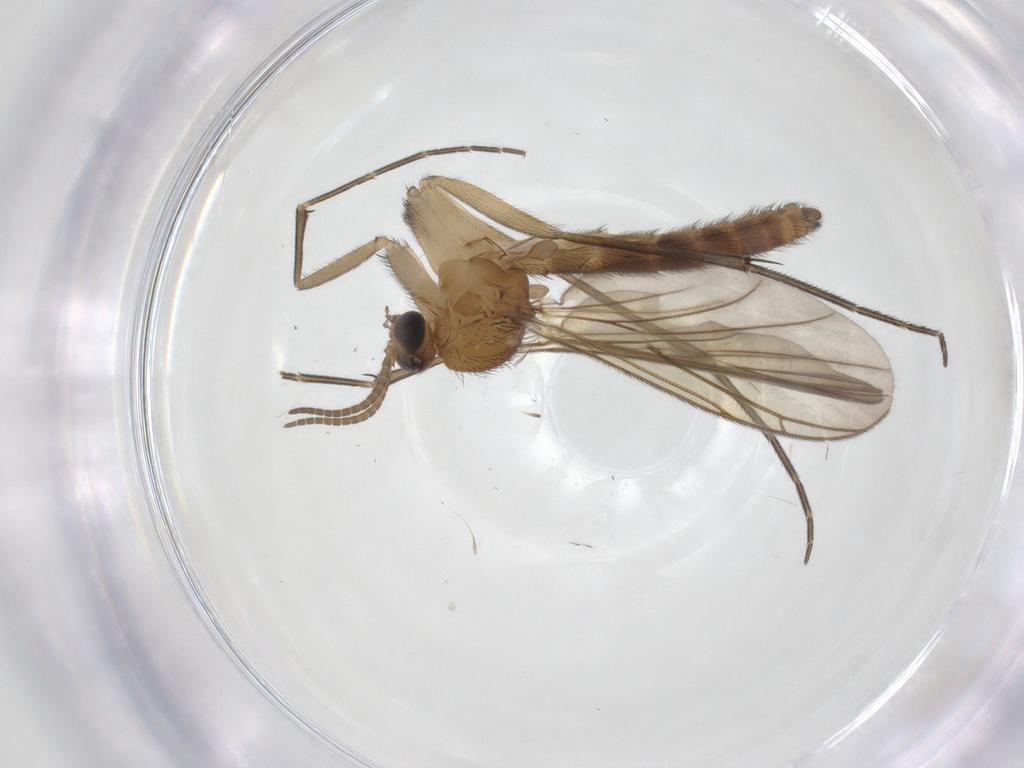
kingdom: Animalia
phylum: Arthropoda
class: Insecta
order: Diptera
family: Keroplatidae
